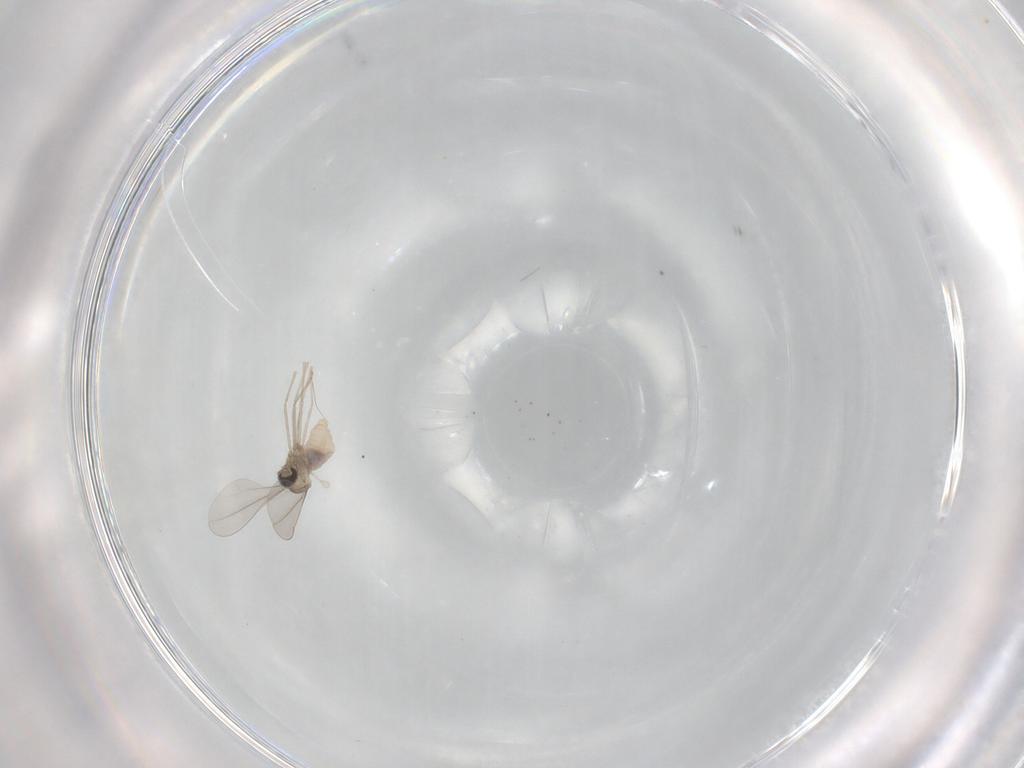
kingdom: Animalia
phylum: Arthropoda
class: Insecta
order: Diptera
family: Cecidomyiidae
